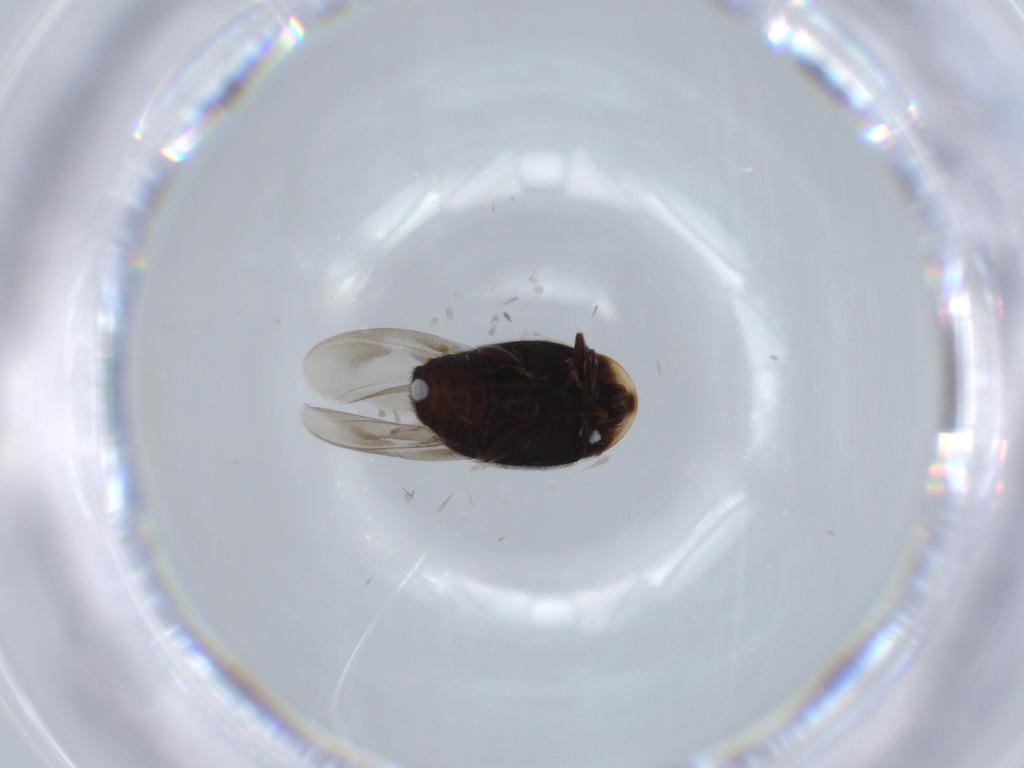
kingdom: Animalia
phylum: Arthropoda
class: Insecta
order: Coleoptera
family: Corylophidae
